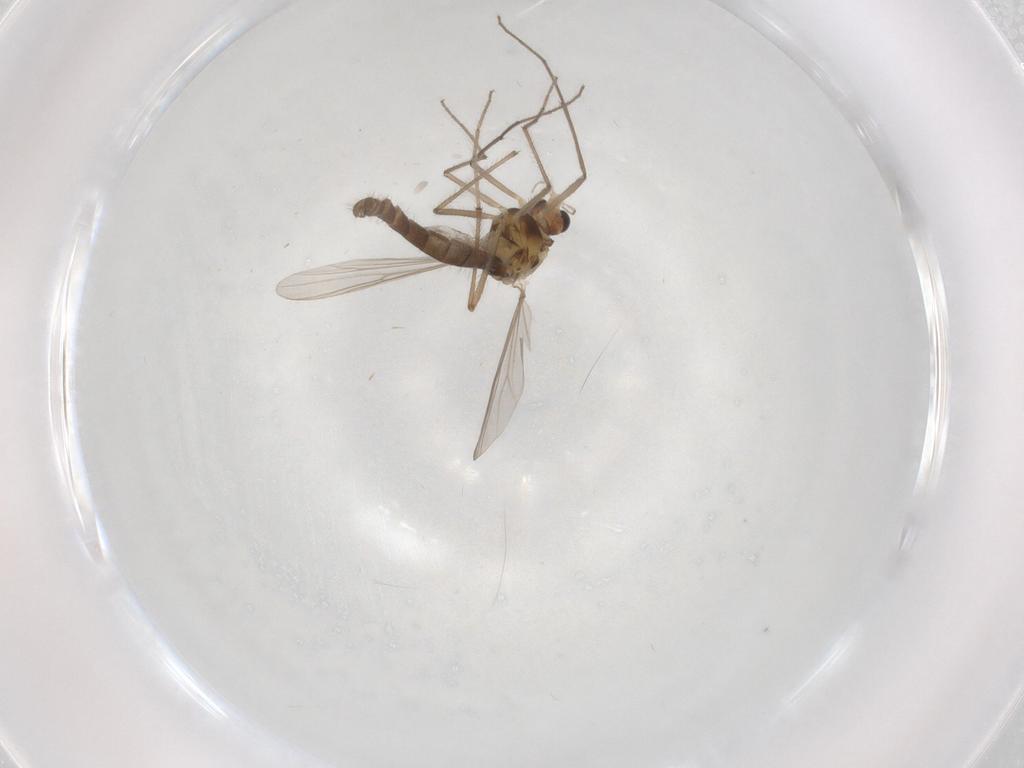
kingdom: Animalia
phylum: Arthropoda
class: Insecta
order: Diptera
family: Chironomidae
